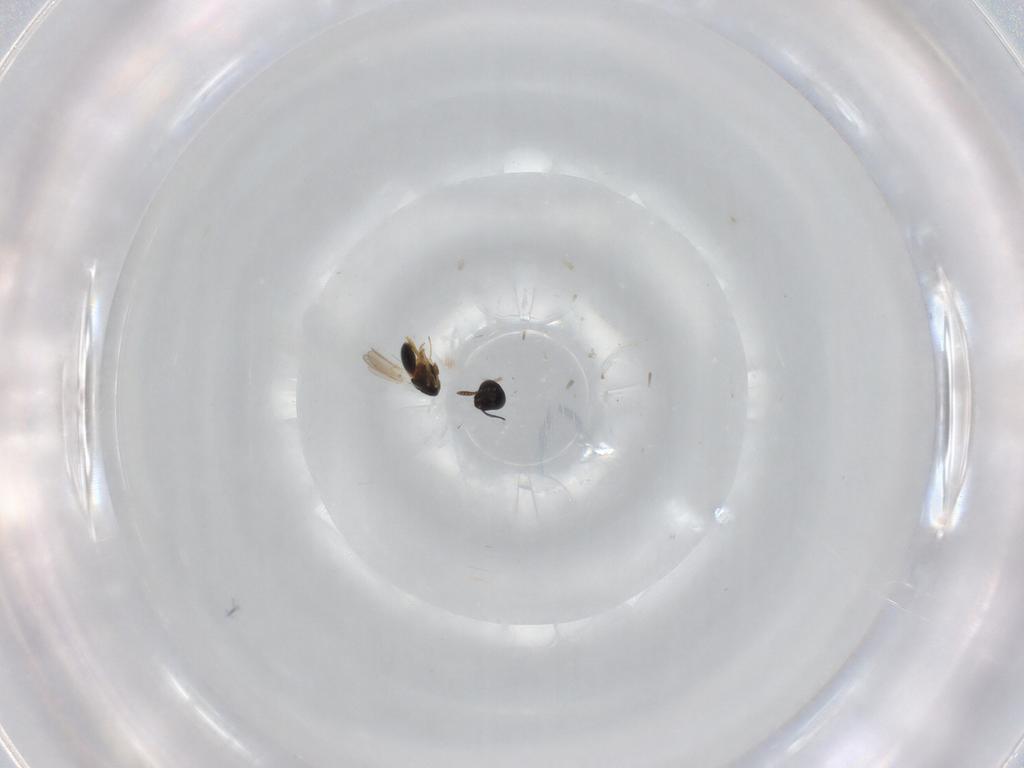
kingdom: Animalia
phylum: Arthropoda
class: Insecta
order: Hymenoptera
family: Scelionidae
